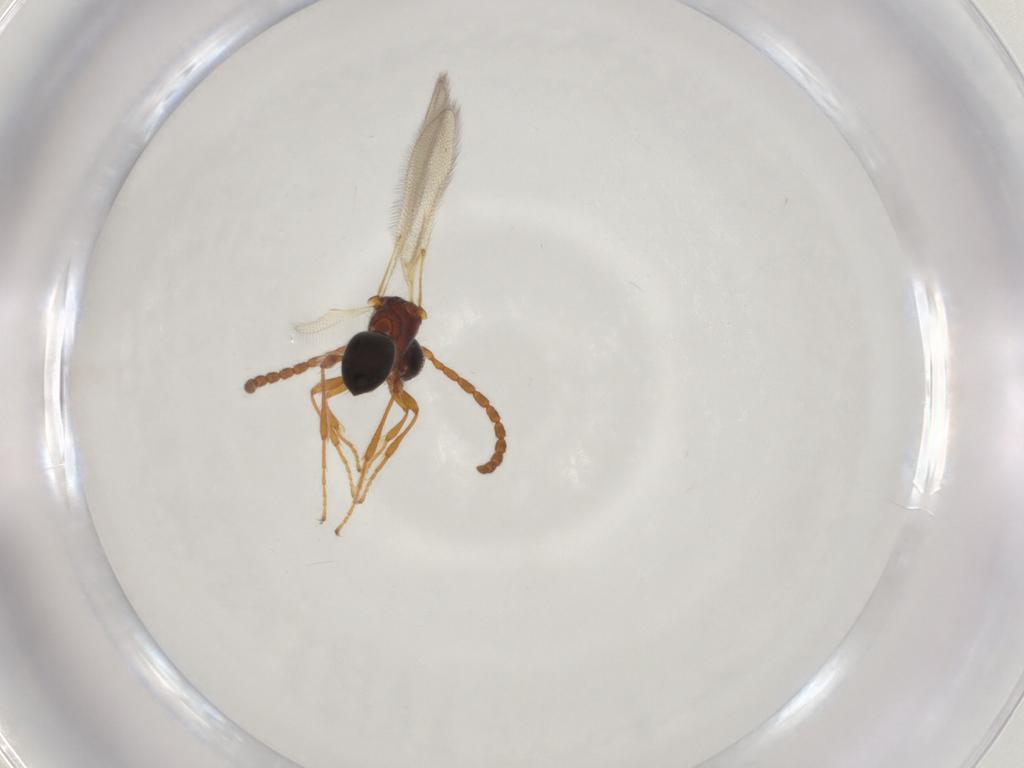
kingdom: Animalia
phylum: Arthropoda
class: Insecta
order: Hymenoptera
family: Diapriidae
